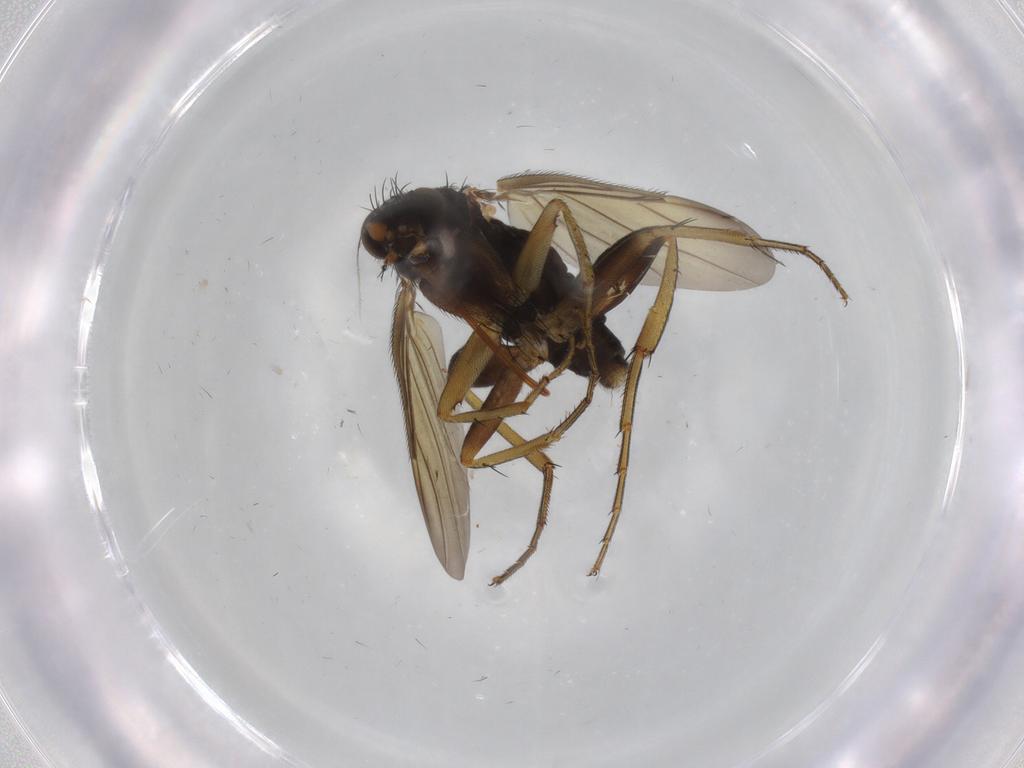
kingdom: Animalia
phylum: Arthropoda
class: Insecta
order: Diptera
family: Phoridae
